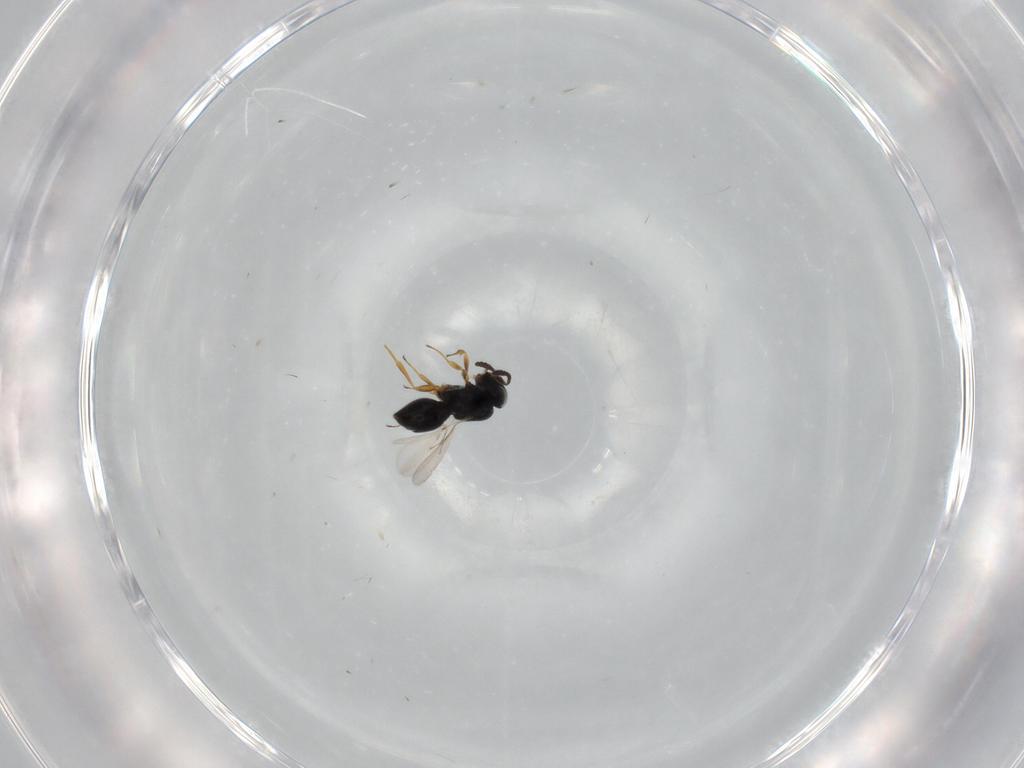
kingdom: Animalia
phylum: Arthropoda
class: Insecta
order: Hymenoptera
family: Scelionidae
